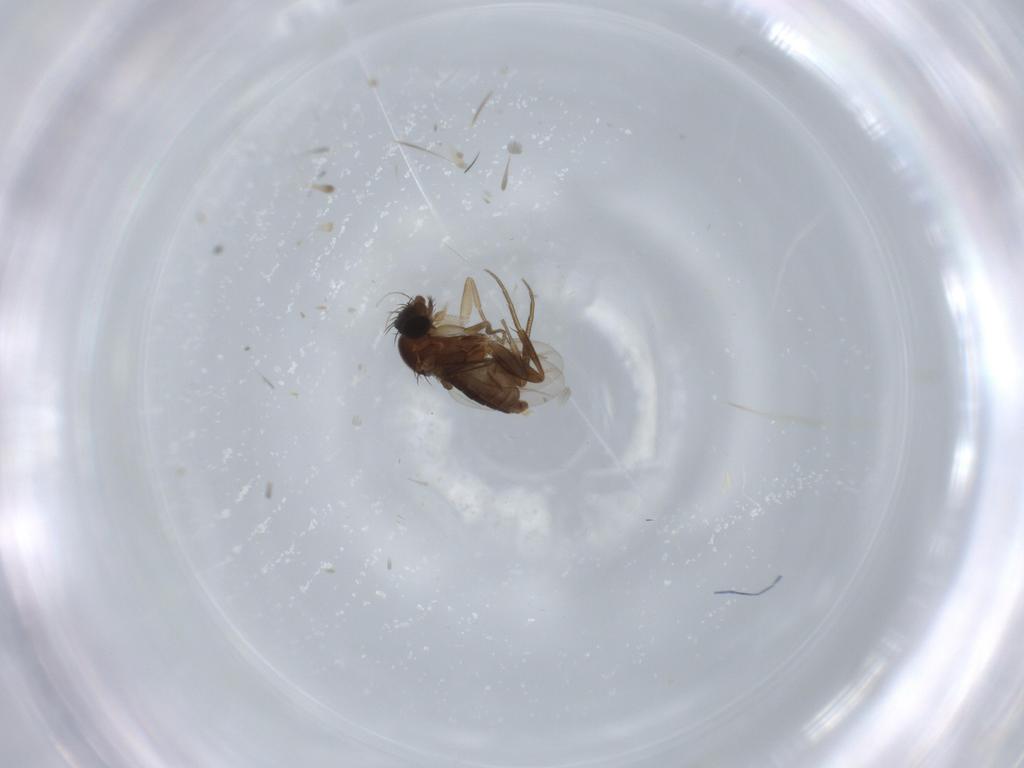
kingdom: Animalia
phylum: Arthropoda
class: Insecta
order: Diptera
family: Phoridae
